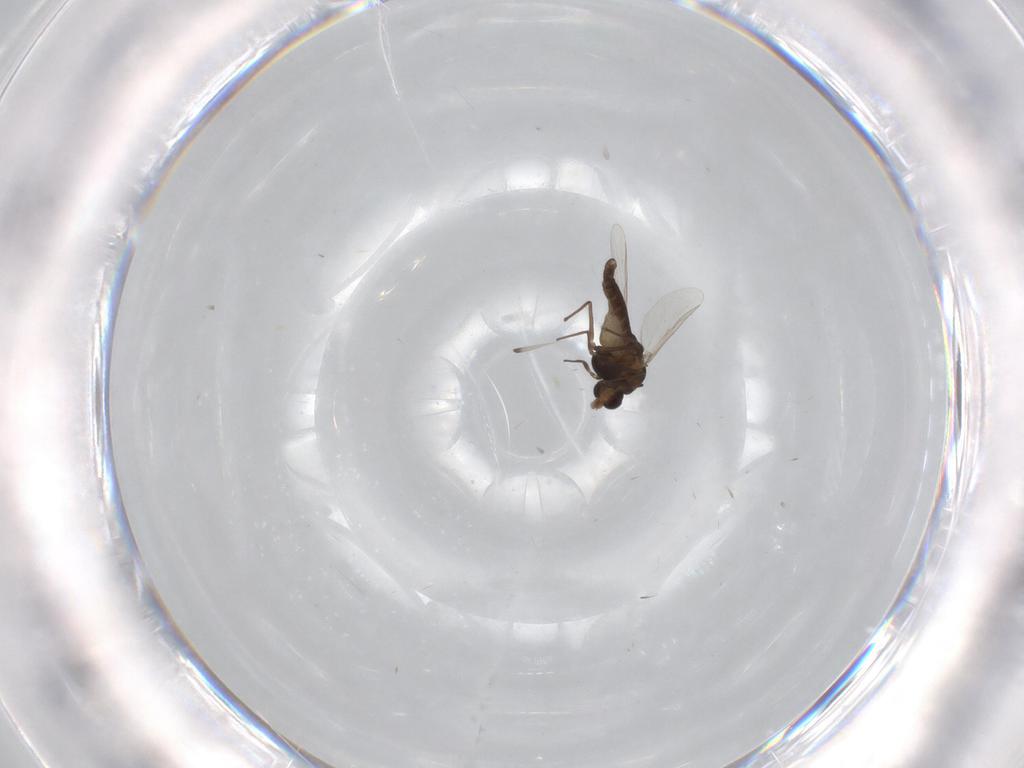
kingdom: Animalia
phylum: Arthropoda
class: Insecta
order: Diptera
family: Chironomidae
